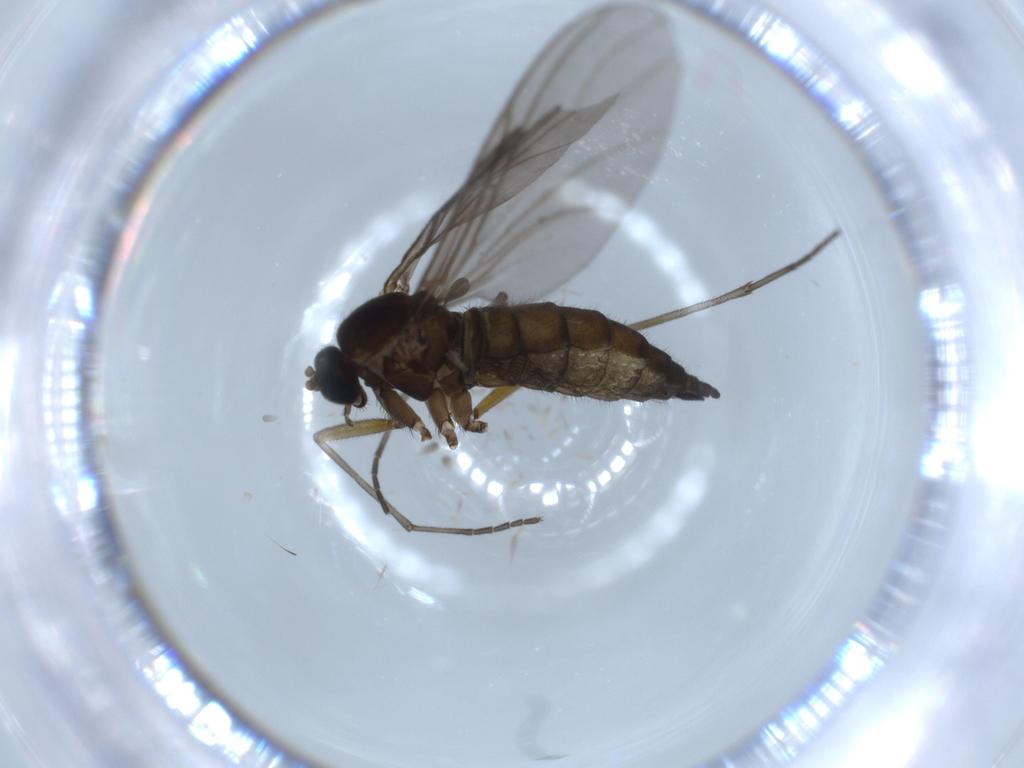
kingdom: Animalia
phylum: Arthropoda
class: Insecta
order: Diptera
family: Sciaridae
